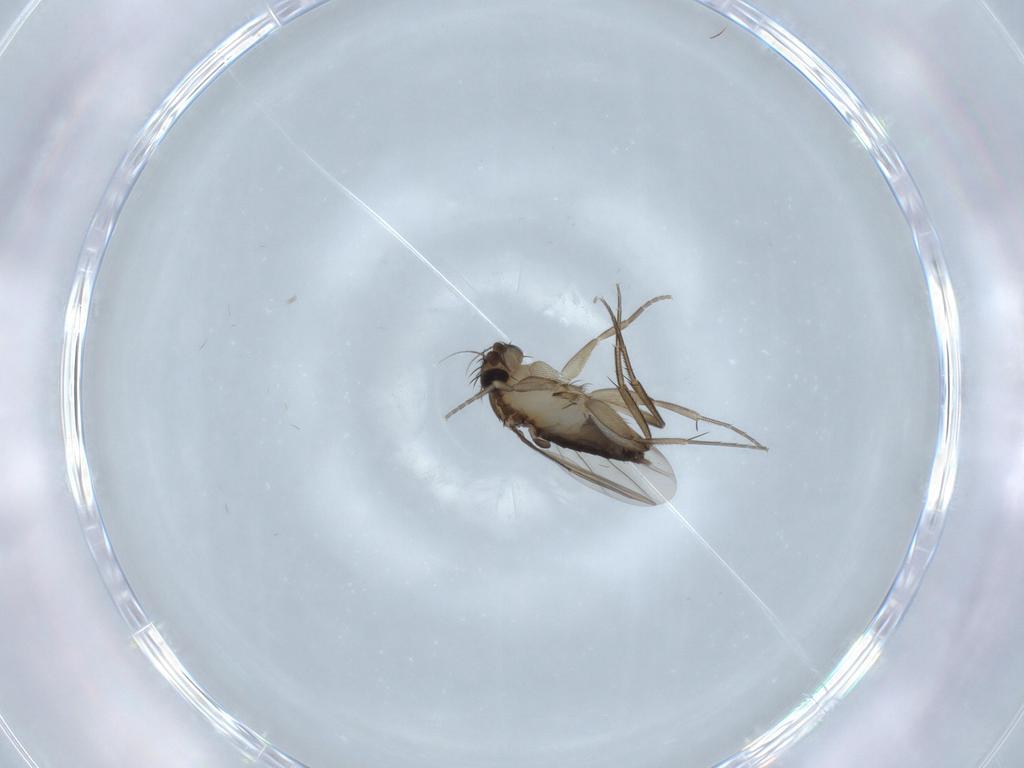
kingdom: Animalia
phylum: Arthropoda
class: Insecta
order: Diptera
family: Phoridae
